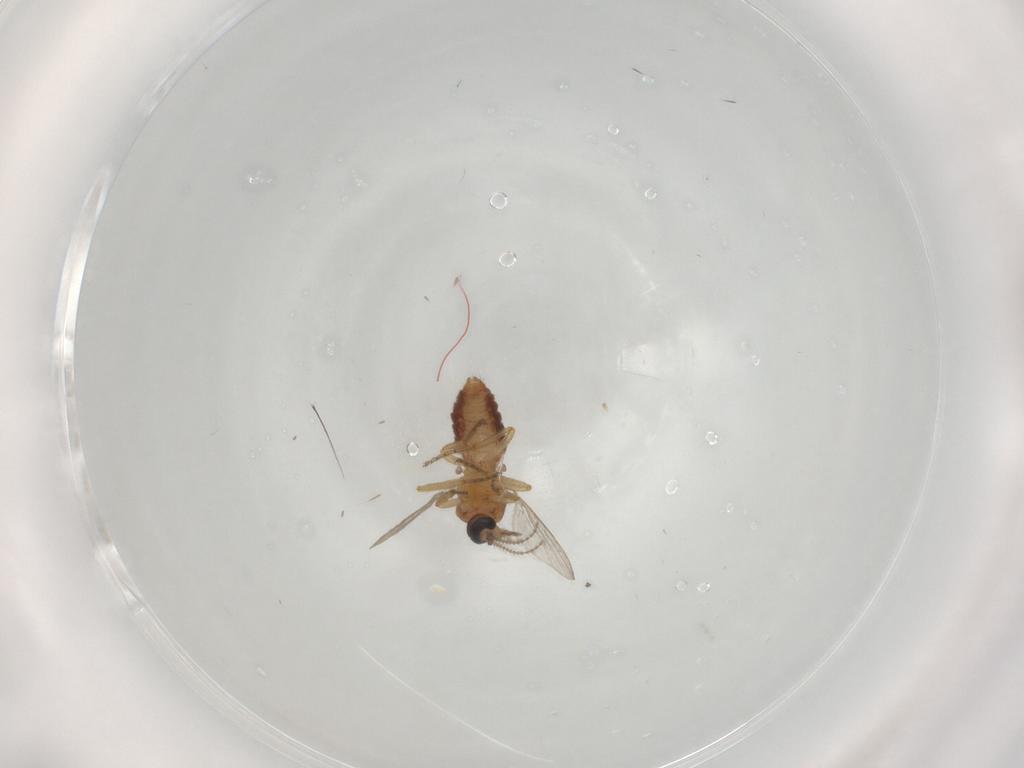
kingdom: Animalia
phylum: Arthropoda
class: Insecta
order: Diptera
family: Ceratopogonidae
